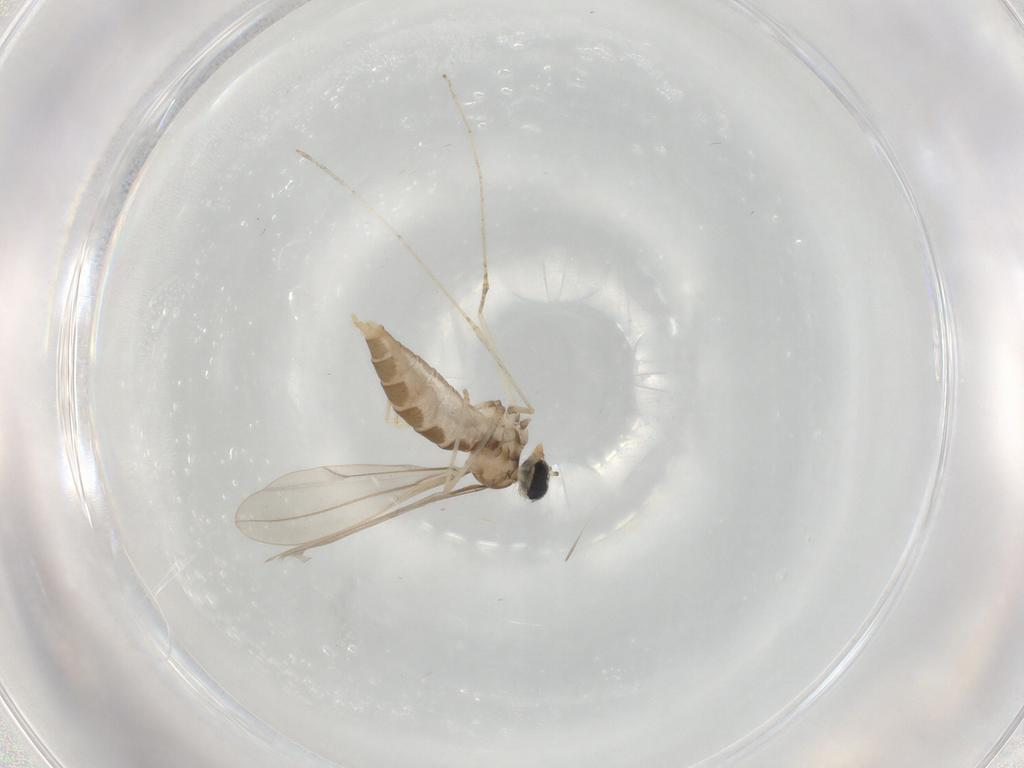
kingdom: Animalia
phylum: Arthropoda
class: Insecta
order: Diptera
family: Cecidomyiidae
